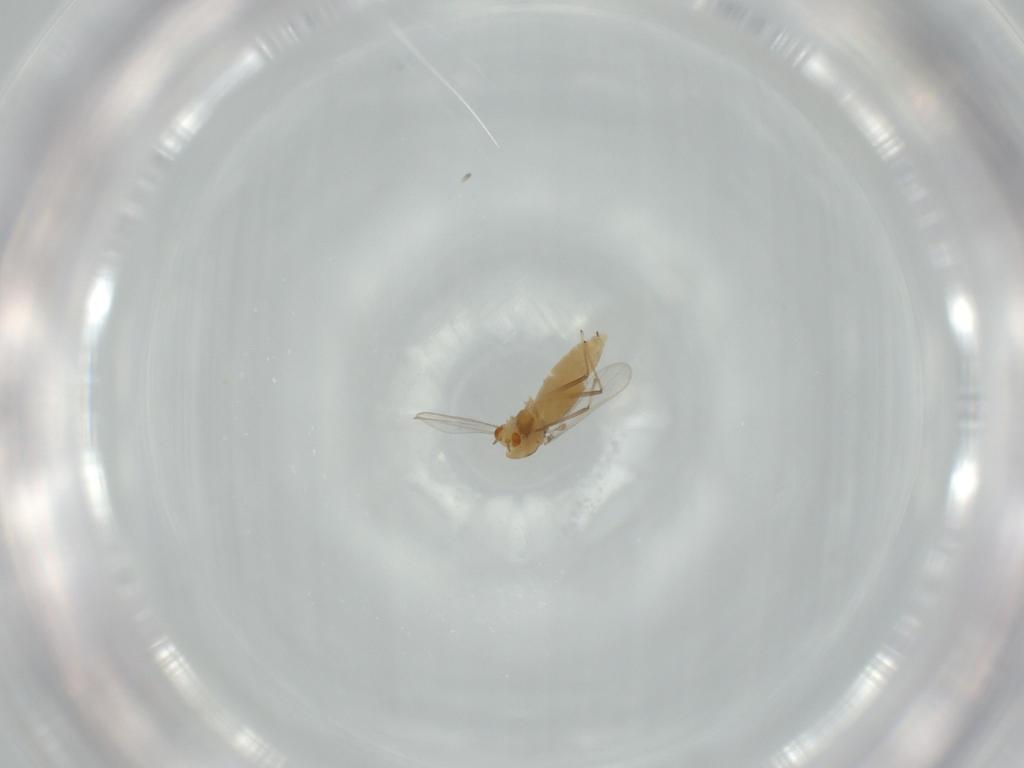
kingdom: Animalia
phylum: Arthropoda
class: Insecta
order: Diptera
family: Chironomidae
